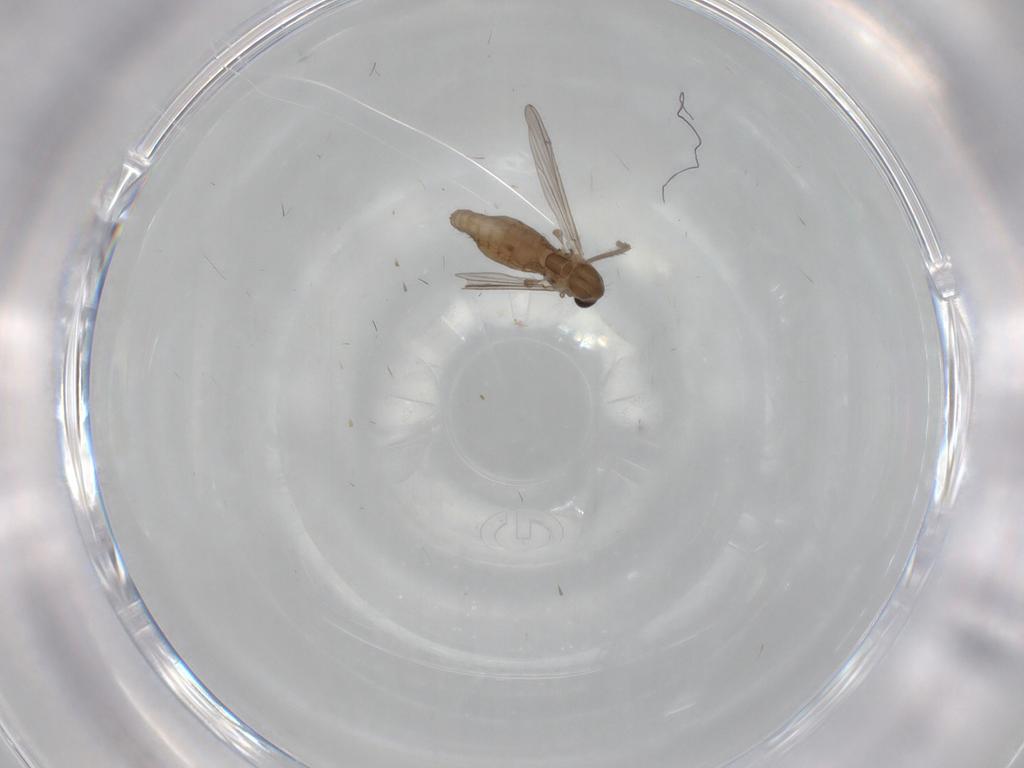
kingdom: Animalia
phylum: Arthropoda
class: Insecta
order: Diptera
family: Chironomidae
